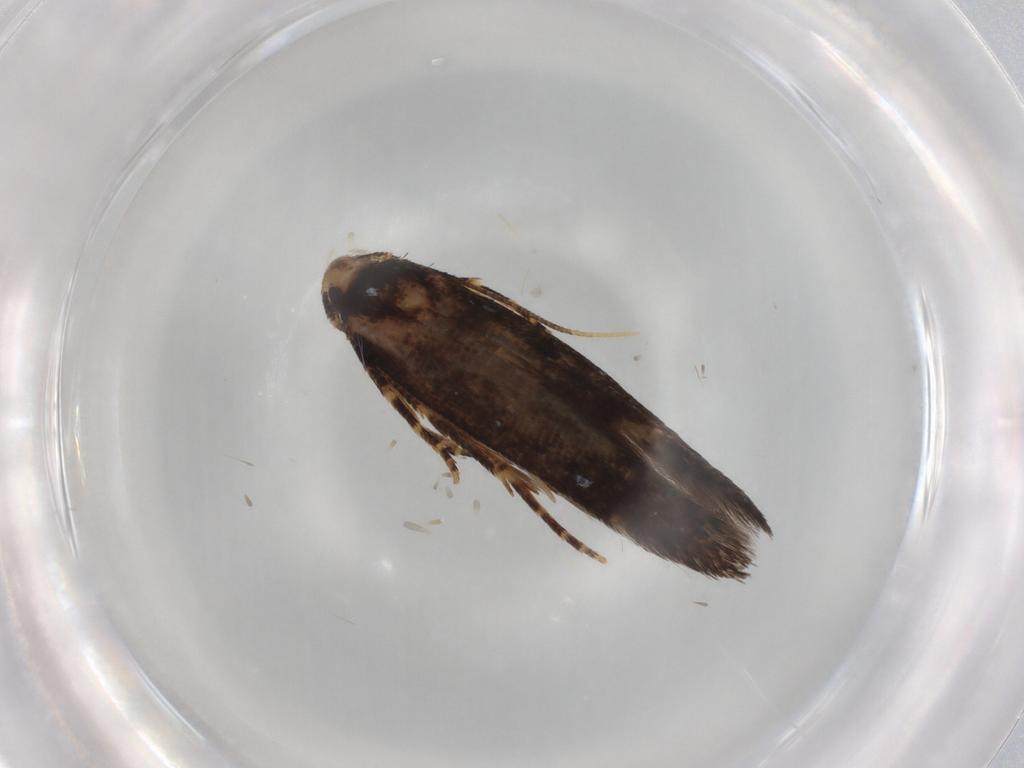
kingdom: Animalia
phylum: Arthropoda
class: Insecta
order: Lepidoptera
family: Cosmopterigidae
